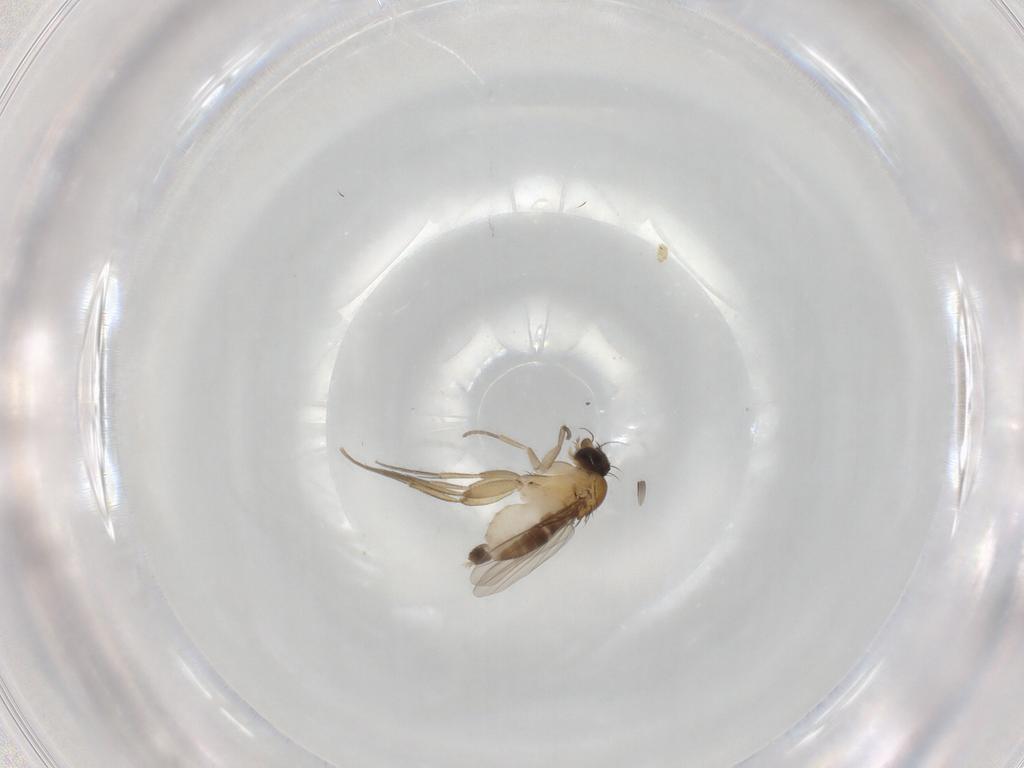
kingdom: Animalia
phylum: Arthropoda
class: Insecta
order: Diptera
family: Cecidomyiidae
